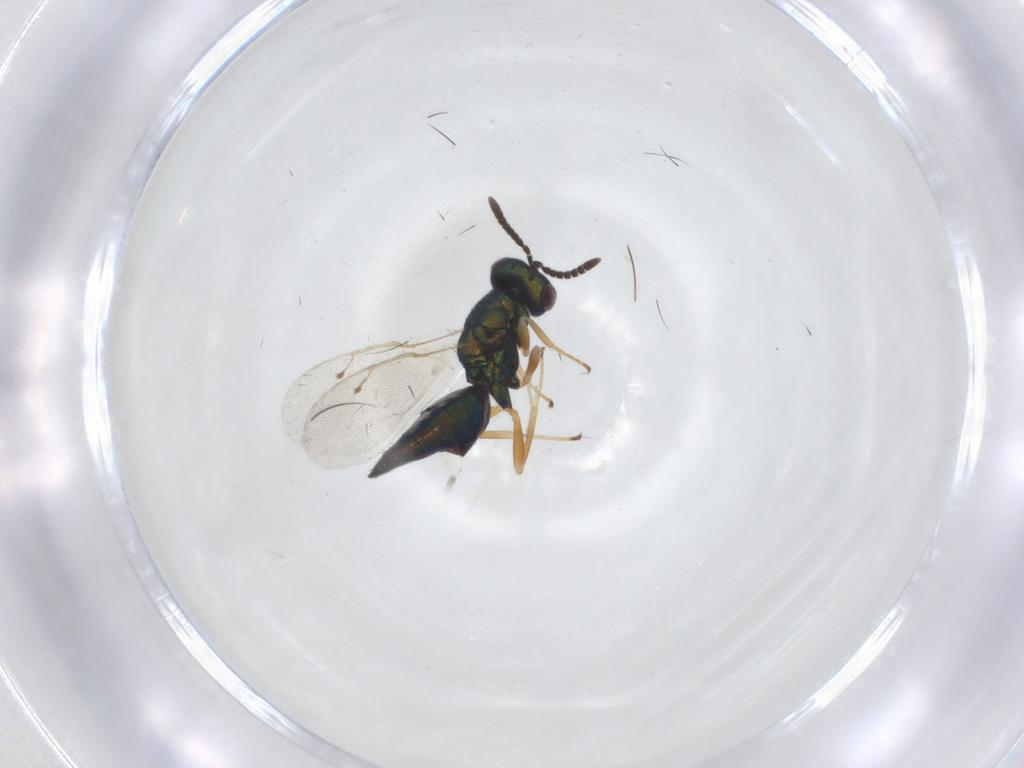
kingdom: Animalia
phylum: Arthropoda
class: Insecta
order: Hymenoptera
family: Pteromalidae
